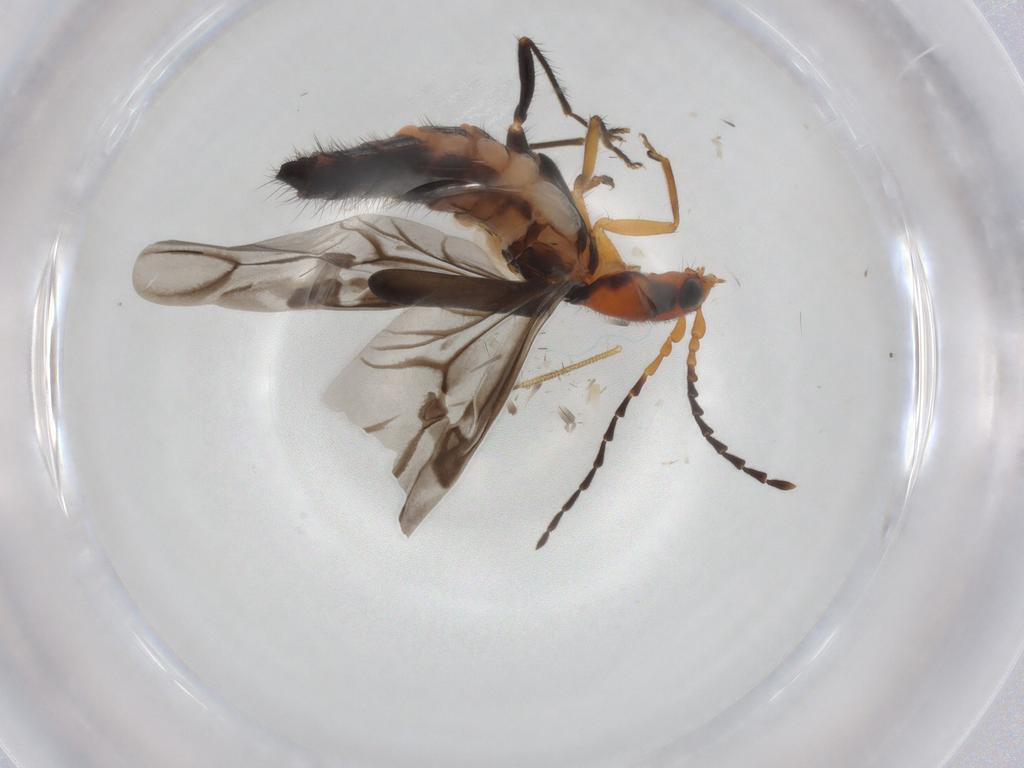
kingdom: Animalia
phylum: Arthropoda
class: Insecta
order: Coleoptera
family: Melyridae
